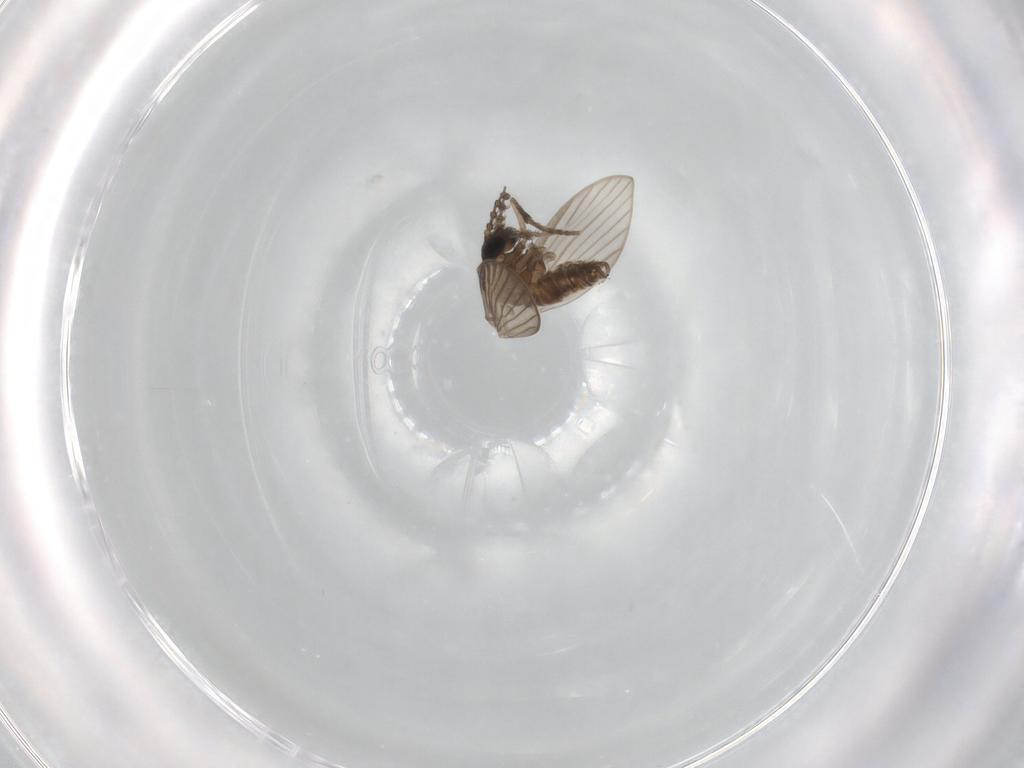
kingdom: Animalia
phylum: Arthropoda
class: Insecta
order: Diptera
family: Psychodidae
